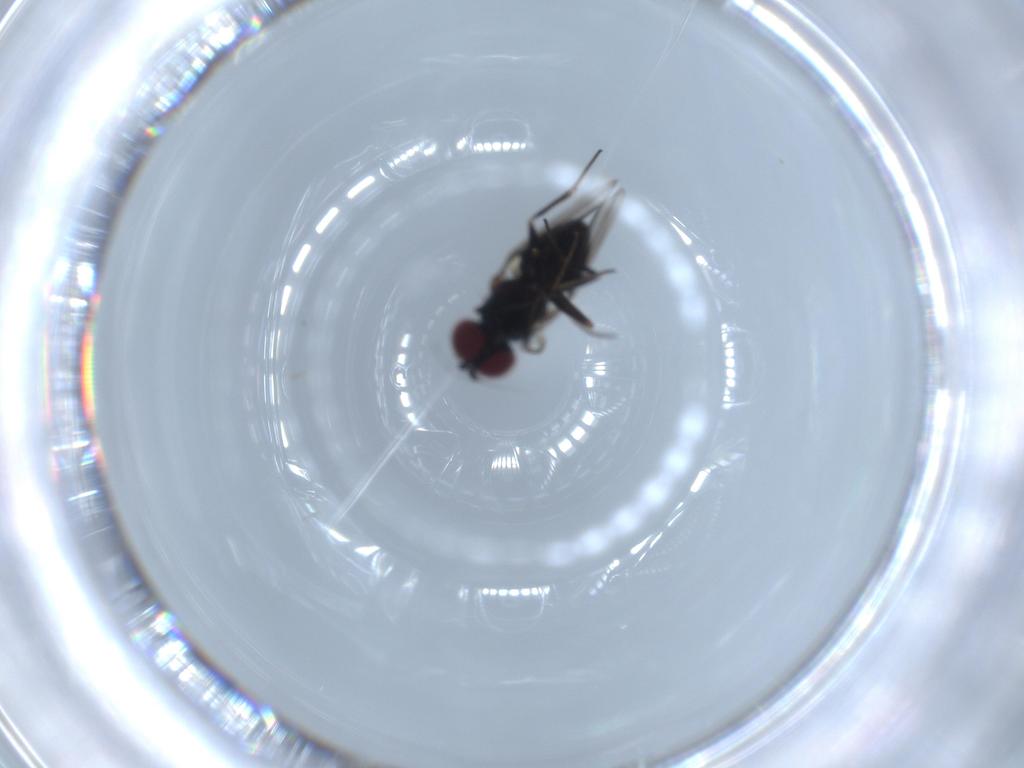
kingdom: Animalia
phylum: Arthropoda
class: Insecta
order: Diptera
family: Dolichopodidae
